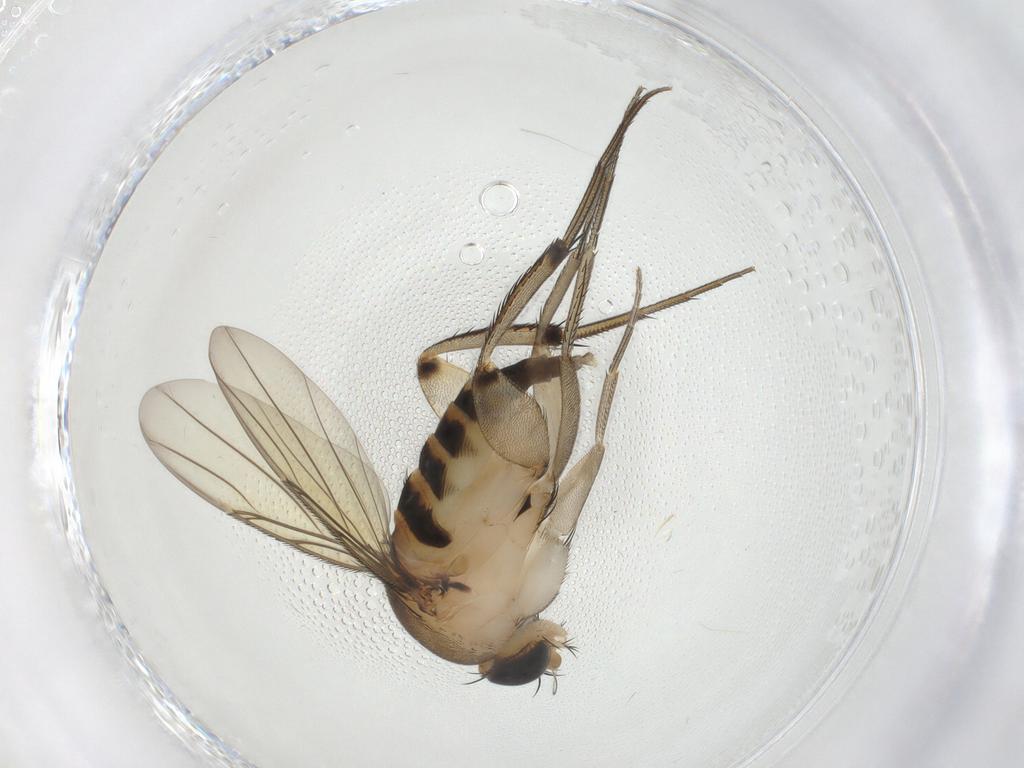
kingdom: Animalia
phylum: Arthropoda
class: Insecta
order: Diptera
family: Phoridae
